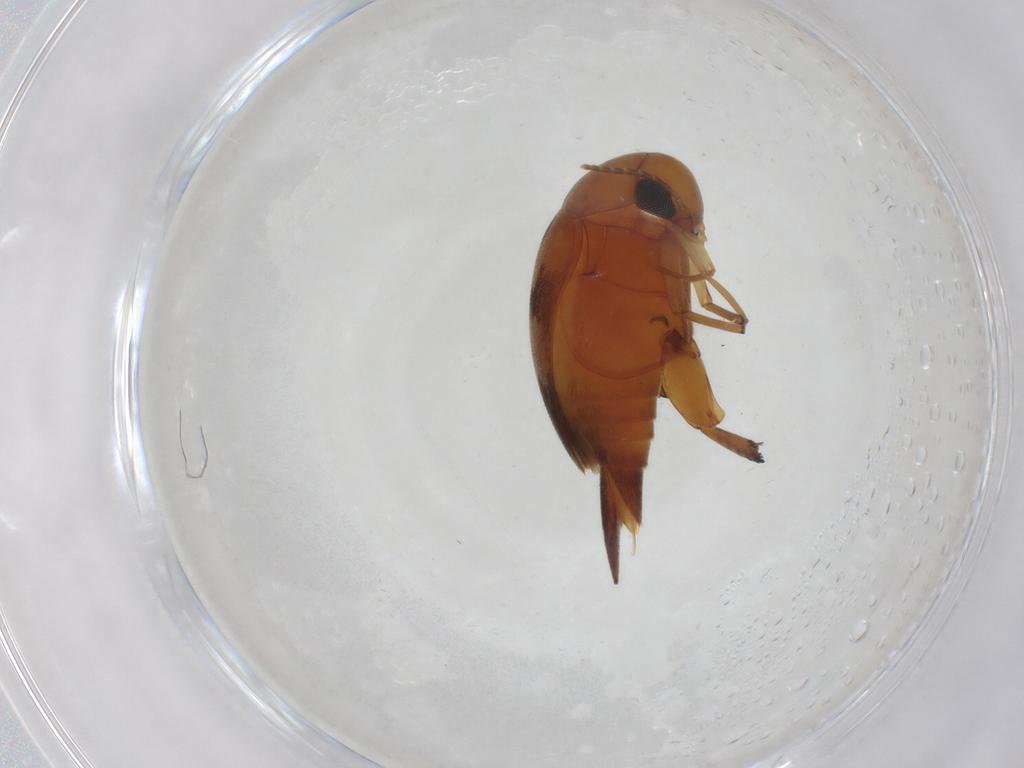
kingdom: Animalia
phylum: Arthropoda
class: Insecta
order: Coleoptera
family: Mordellidae
